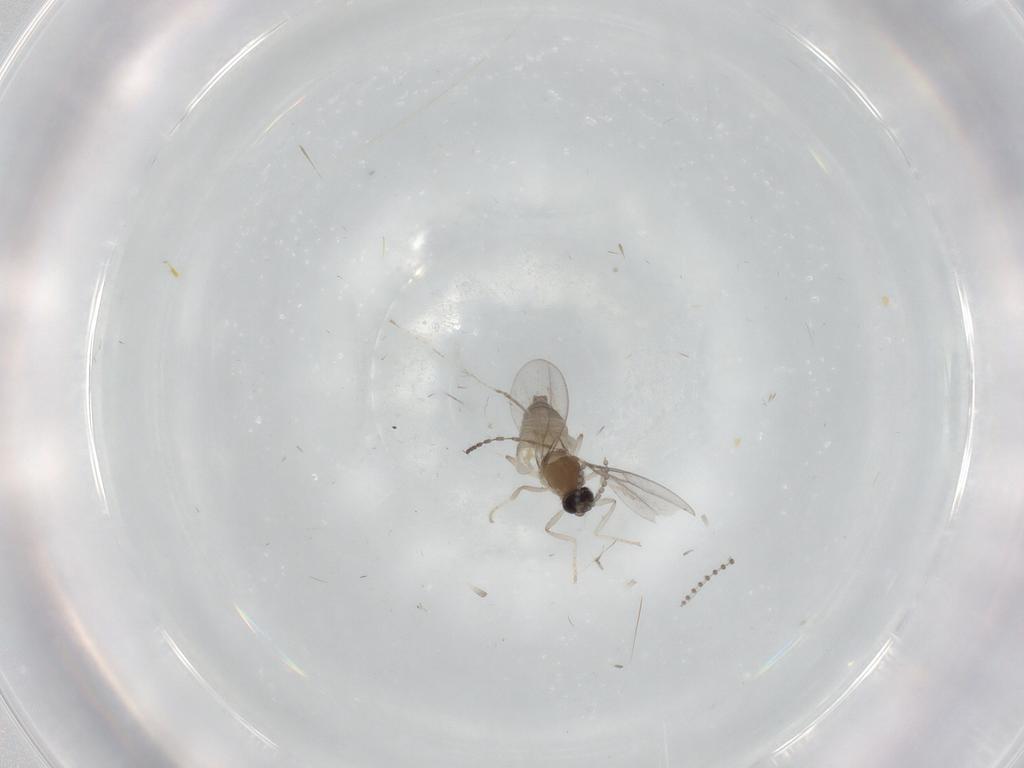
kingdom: Animalia
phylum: Arthropoda
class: Insecta
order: Diptera
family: Cecidomyiidae
